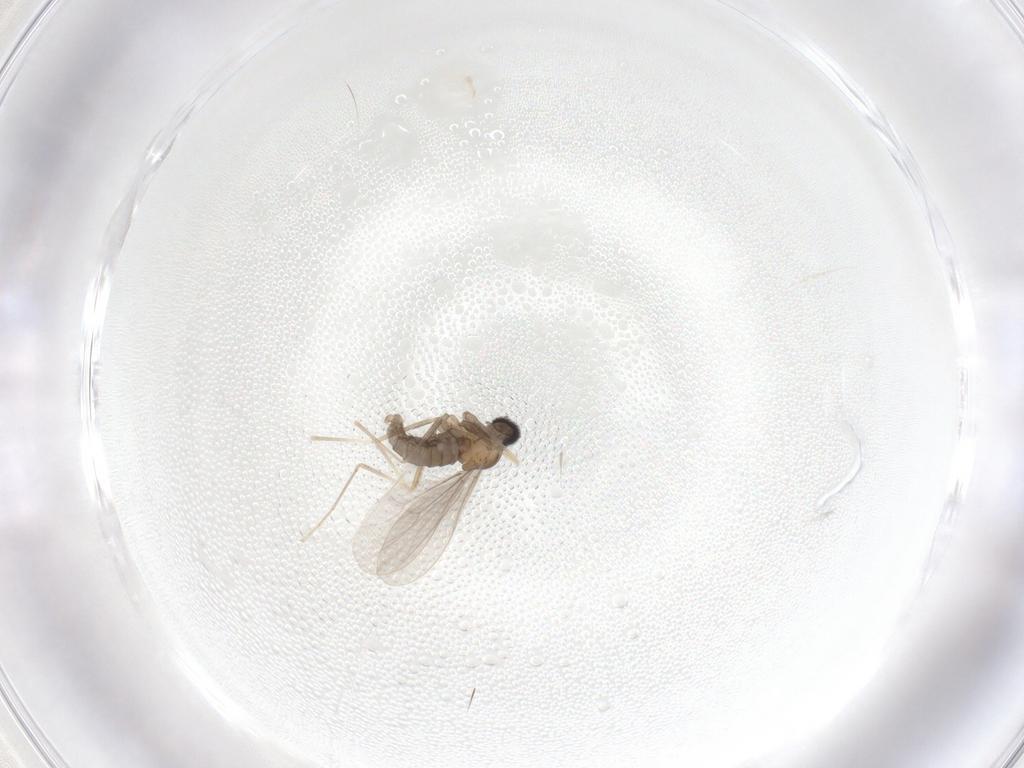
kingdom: Animalia
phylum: Arthropoda
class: Insecta
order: Diptera
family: Cecidomyiidae
